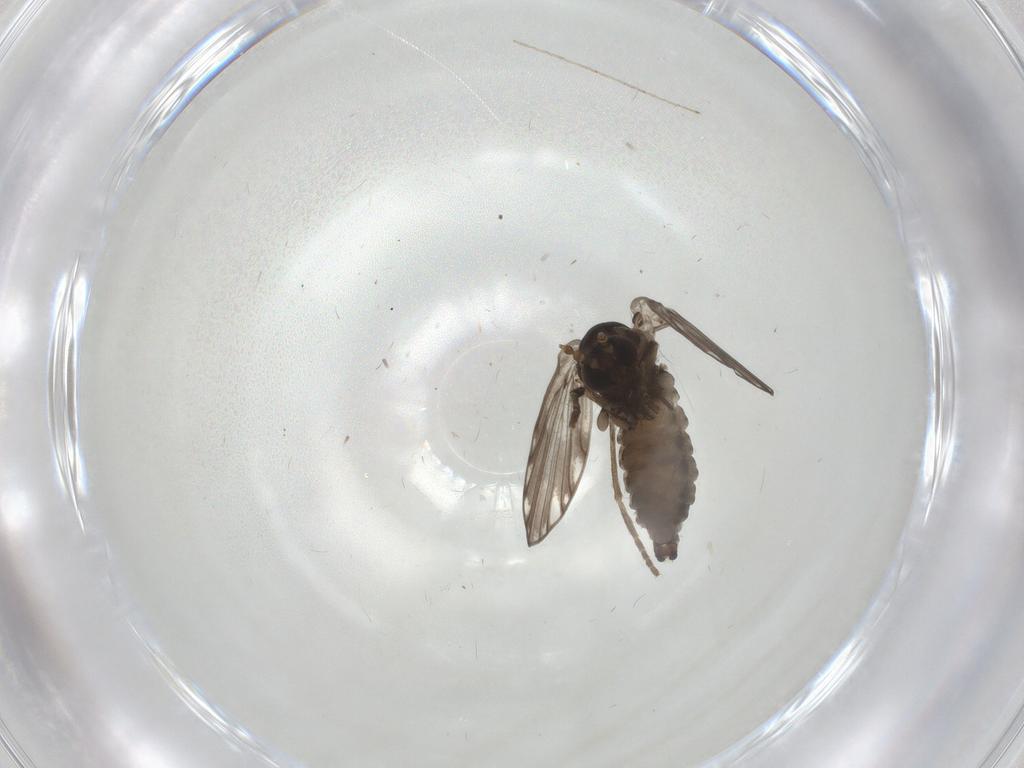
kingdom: Animalia
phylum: Arthropoda
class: Insecta
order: Diptera
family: Psychodidae
